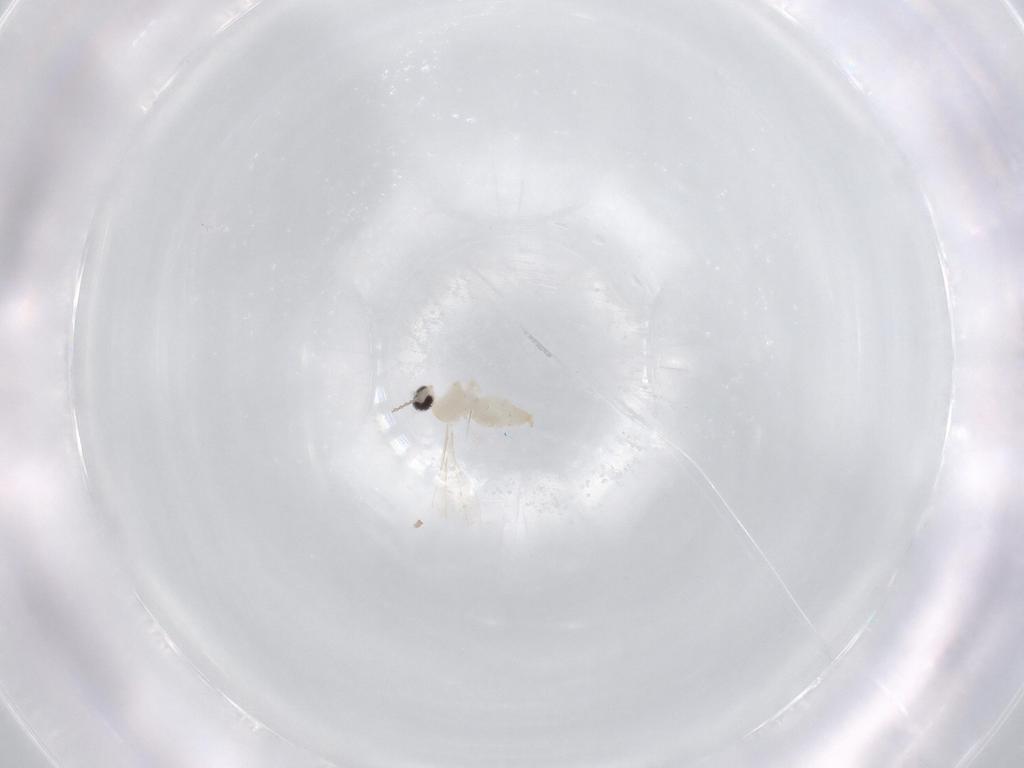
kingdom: Animalia
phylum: Arthropoda
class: Insecta
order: Diptera
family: Cecidomyiidae
